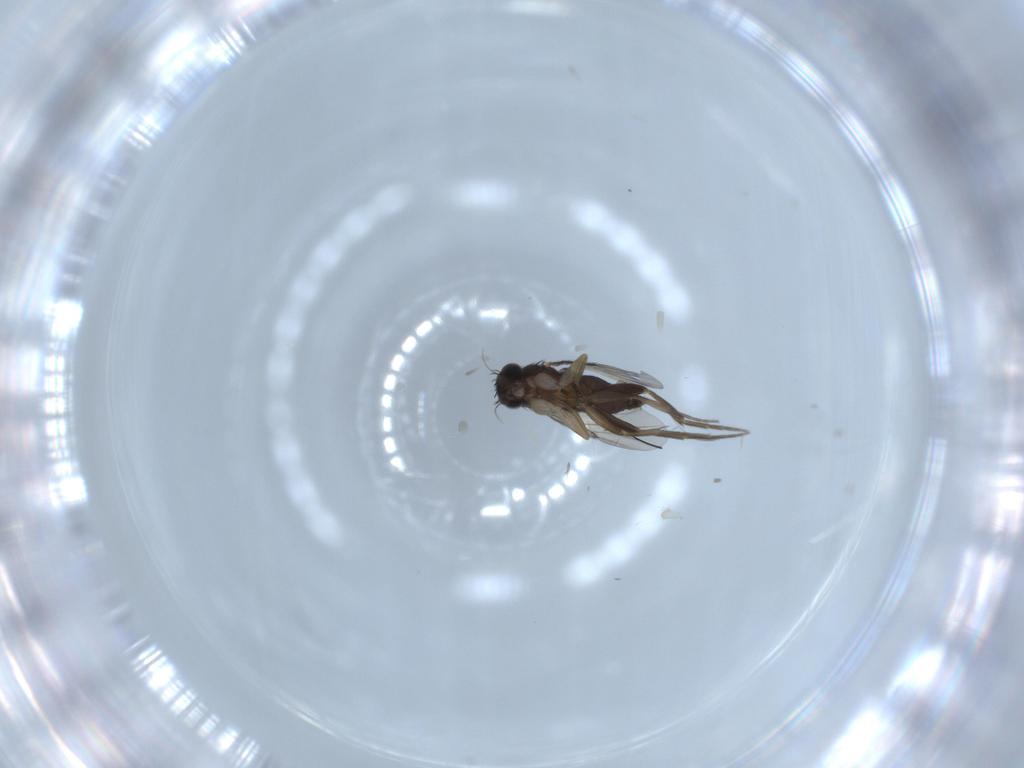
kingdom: Animalia
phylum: Arthropoda
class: Insecta
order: Diptera
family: Phoridae
